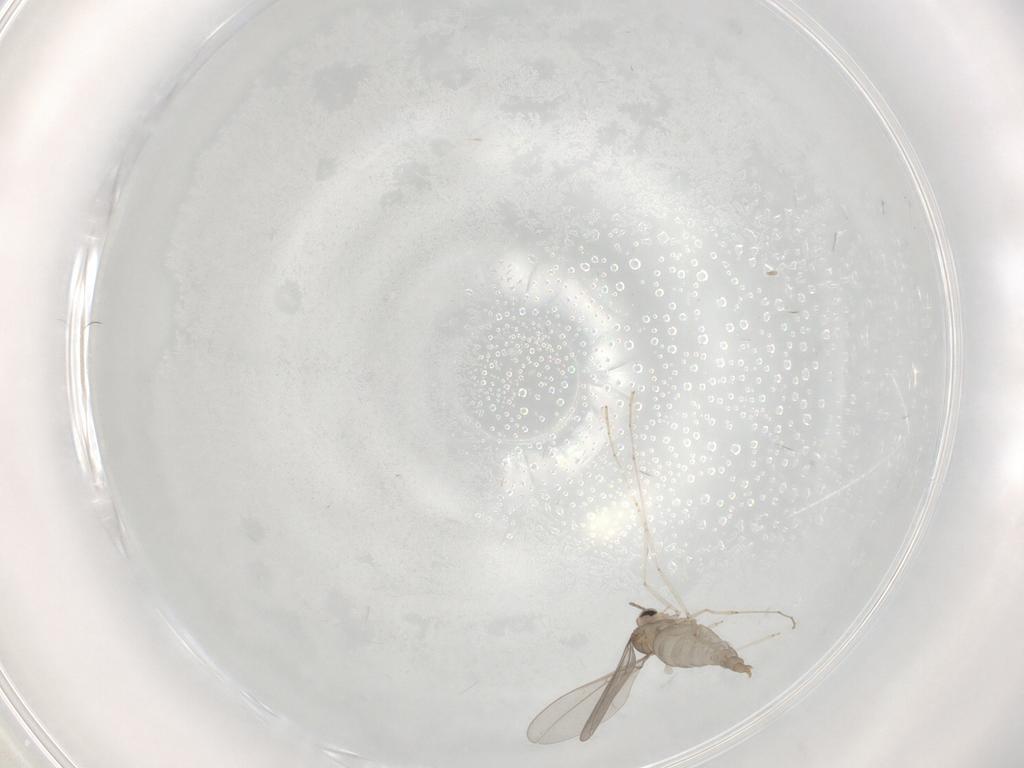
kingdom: Animalia
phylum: Arthropoda
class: Insecta
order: Diptera
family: Phoridae
